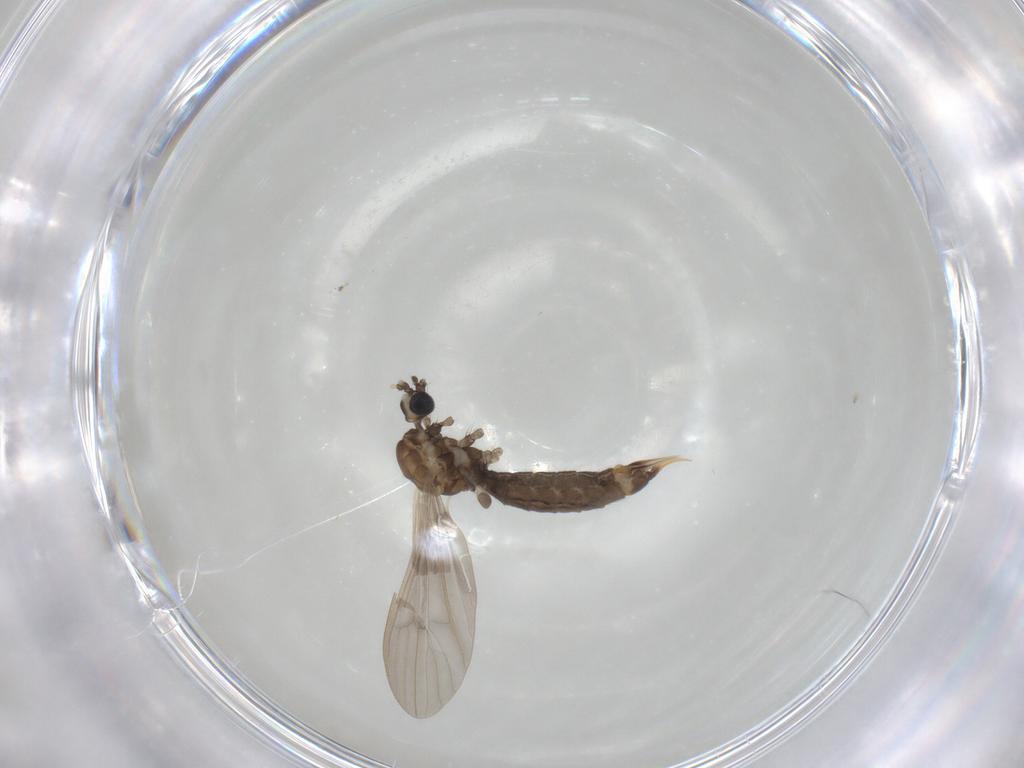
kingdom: Animalia
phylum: Arthropoda
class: Insecta
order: Diptera
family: Limoniidae
